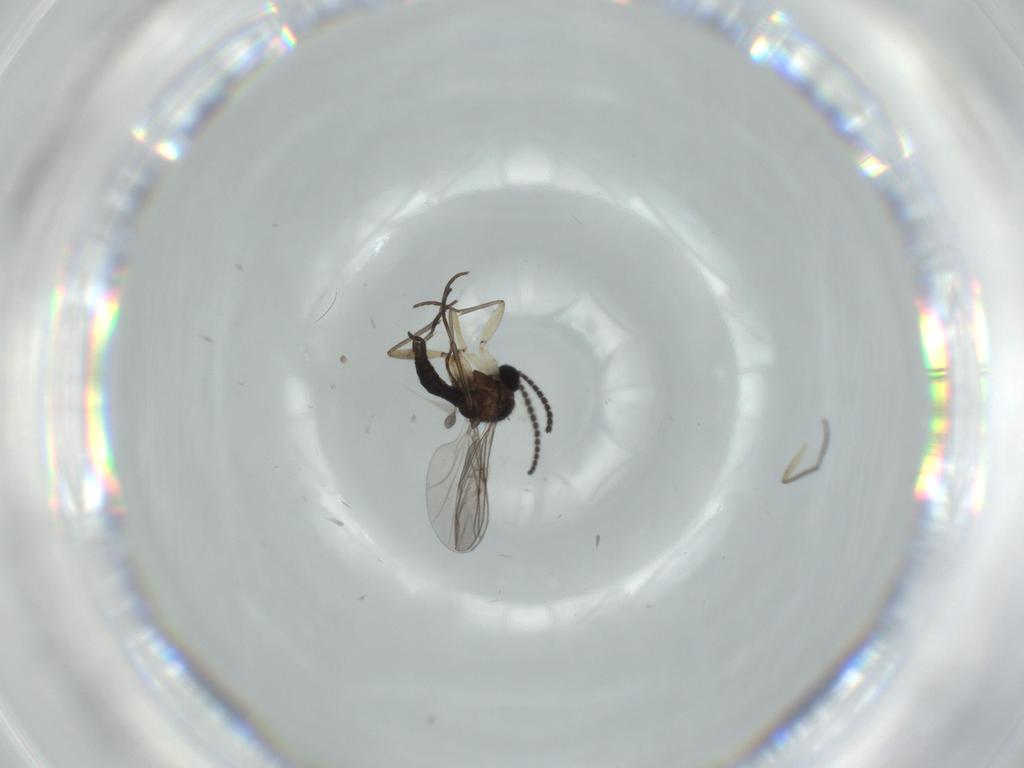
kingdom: Animalia
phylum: Arthropoda
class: Insecta
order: Diptera
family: Sciaridae
